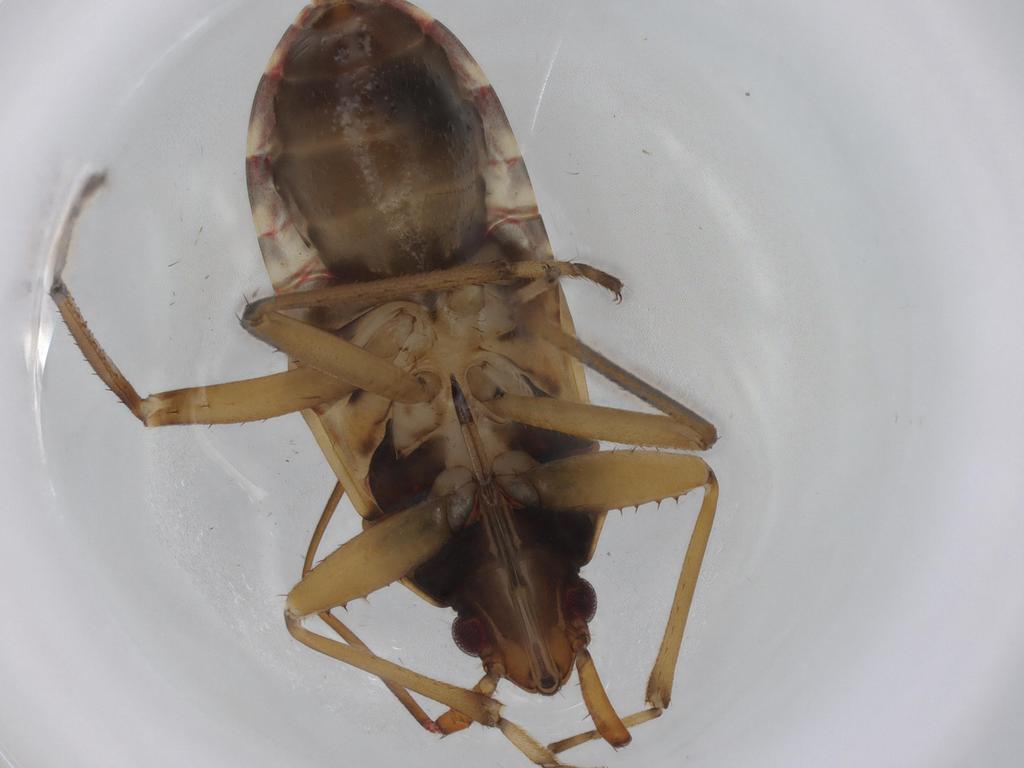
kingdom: Animalia
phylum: Arthropoda
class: Insecta
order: Hemiptera
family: Rhyparochromidae
